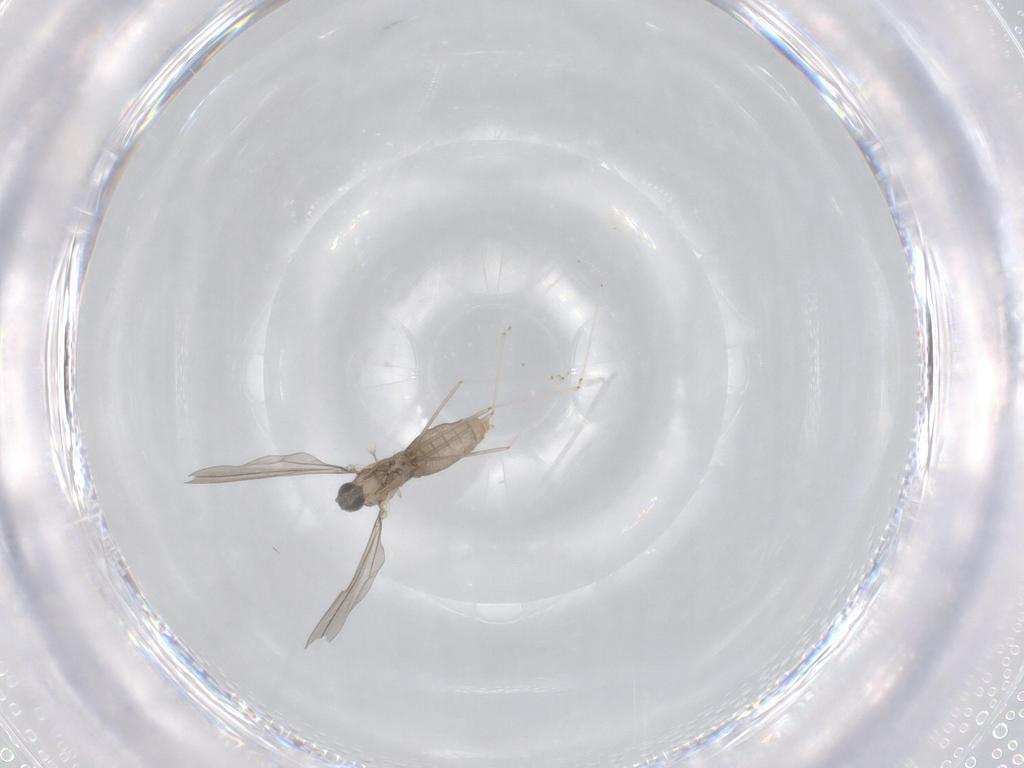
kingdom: Animalia
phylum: Arthropoda
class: Insecta
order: Diptera
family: Cecidomyiidae
